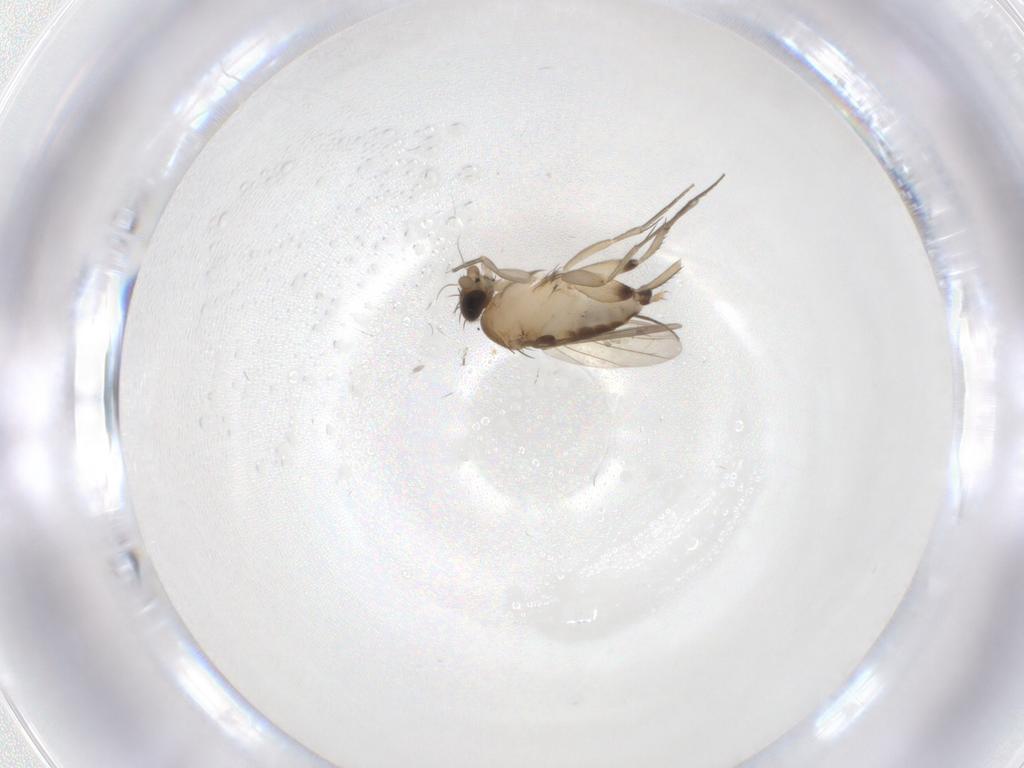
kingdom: Animalia
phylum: Arthropoda
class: Insecta
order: Diptera
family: Phoridae
